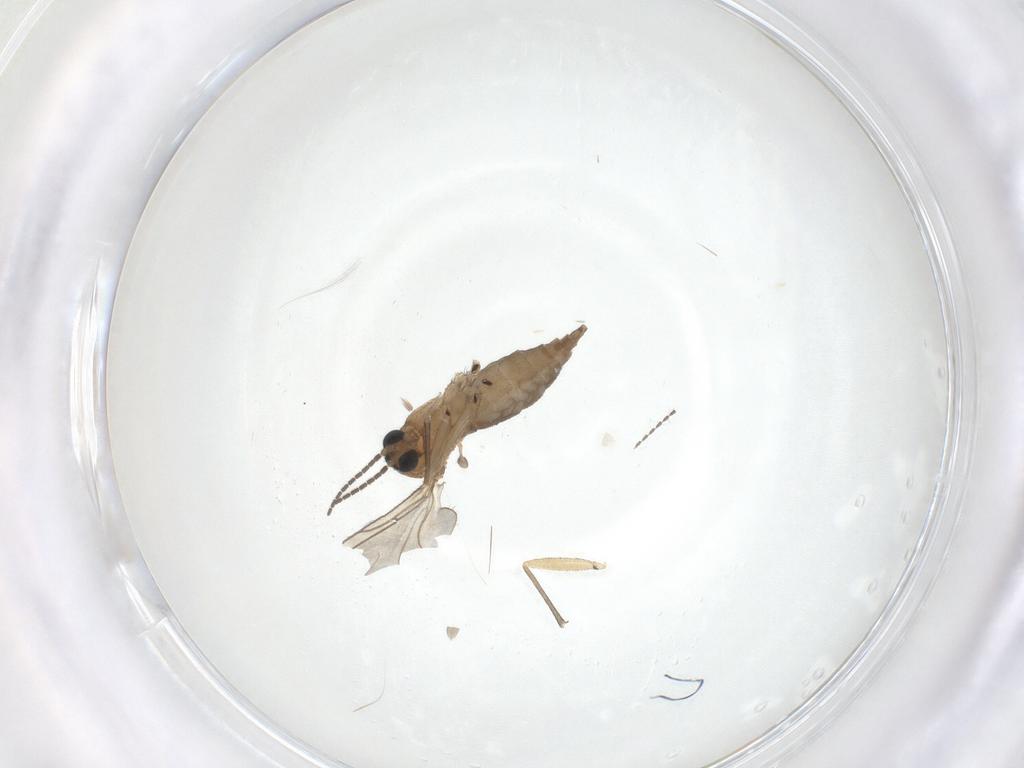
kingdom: Animalia
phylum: Arthropoda
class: Insecta
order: Diptera
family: Sciaridae
